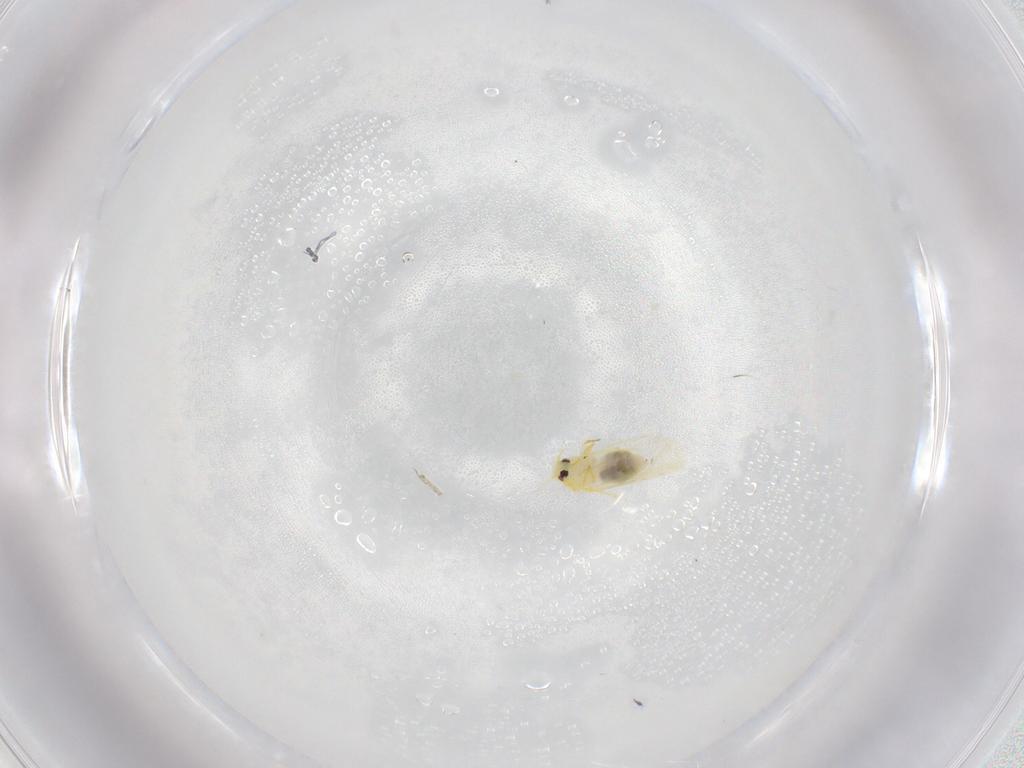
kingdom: Animalia
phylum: Arthropoda
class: Insecta
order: Hemiptera
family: Aleyrodidae
